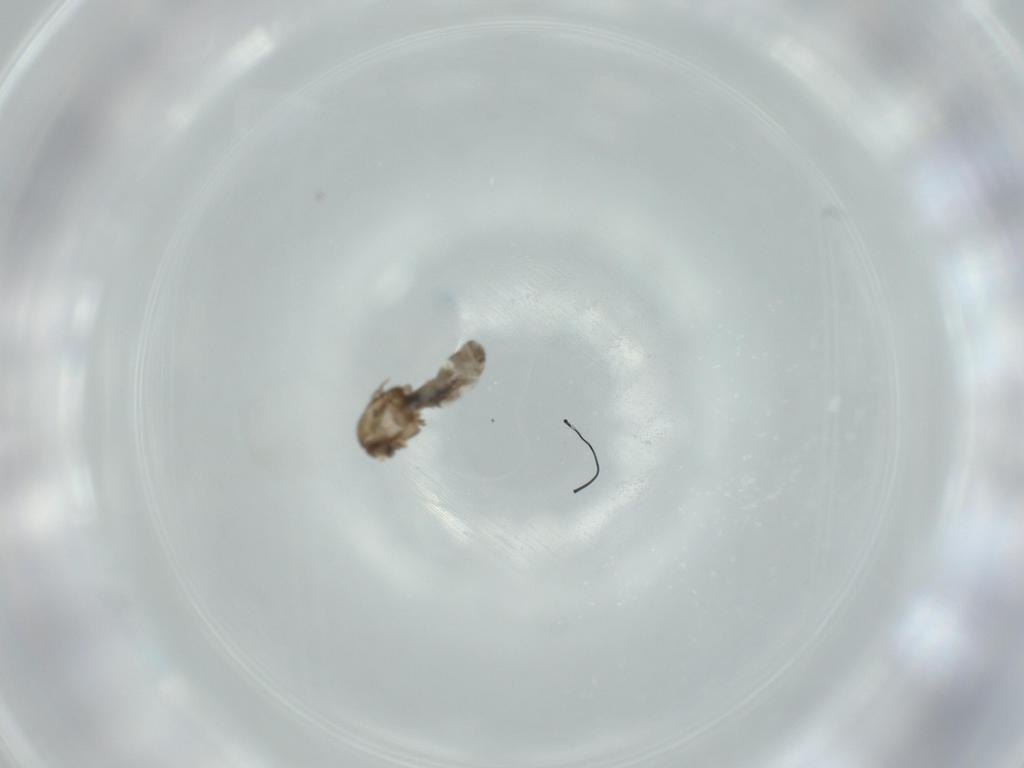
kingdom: Animalia
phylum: Arthropoda
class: Insecta
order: Diptera
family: Chironomidae
